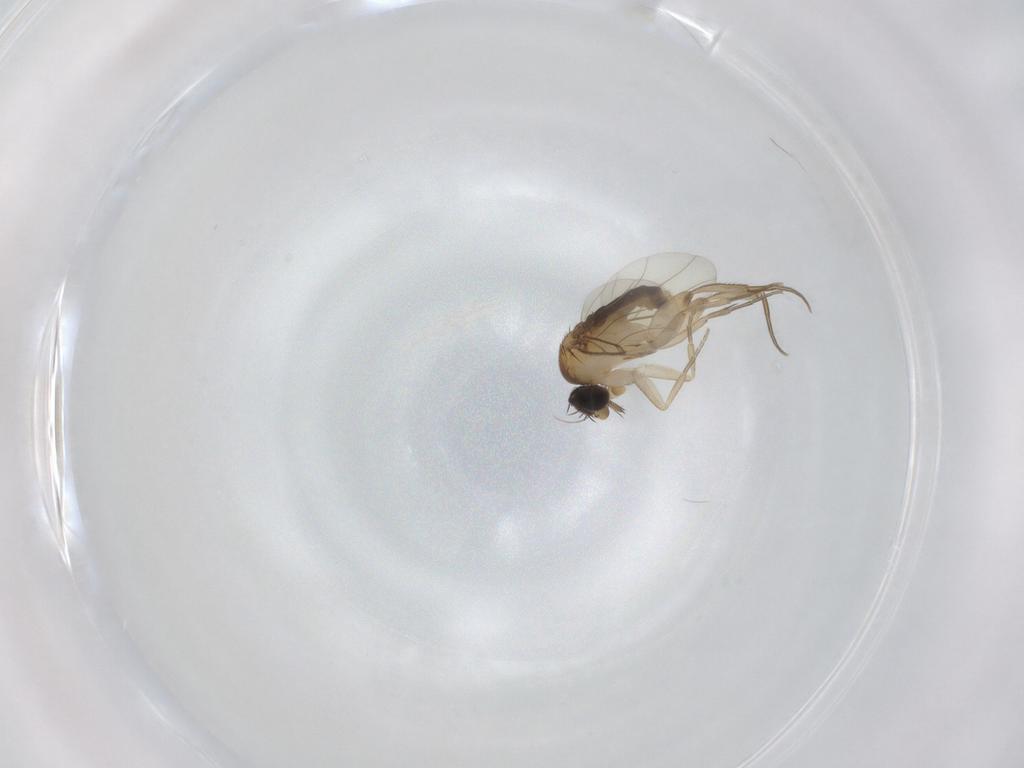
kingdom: Animalia
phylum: Arthropoda
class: Insecta
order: Diptera
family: Phoridae
